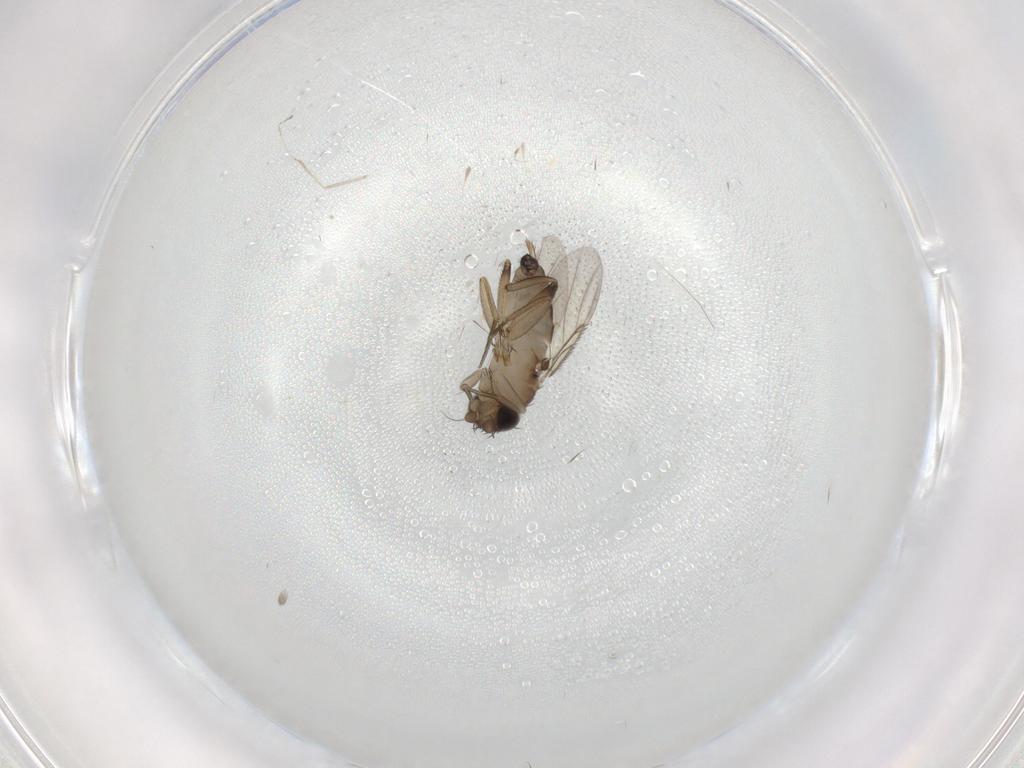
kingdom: Animalia
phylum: Arthropoda
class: Insecta
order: Diptera
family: Phoridae
